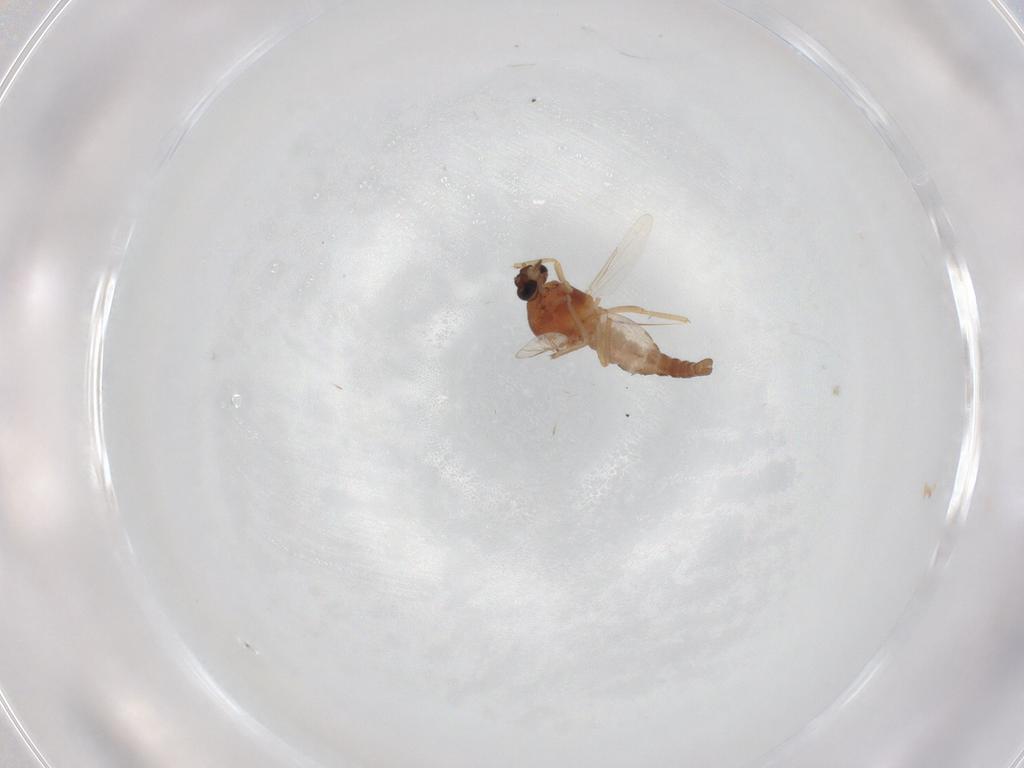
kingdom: Animalia
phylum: Arthropoda
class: Insecta
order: Diptera
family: Ceratopogonidae
